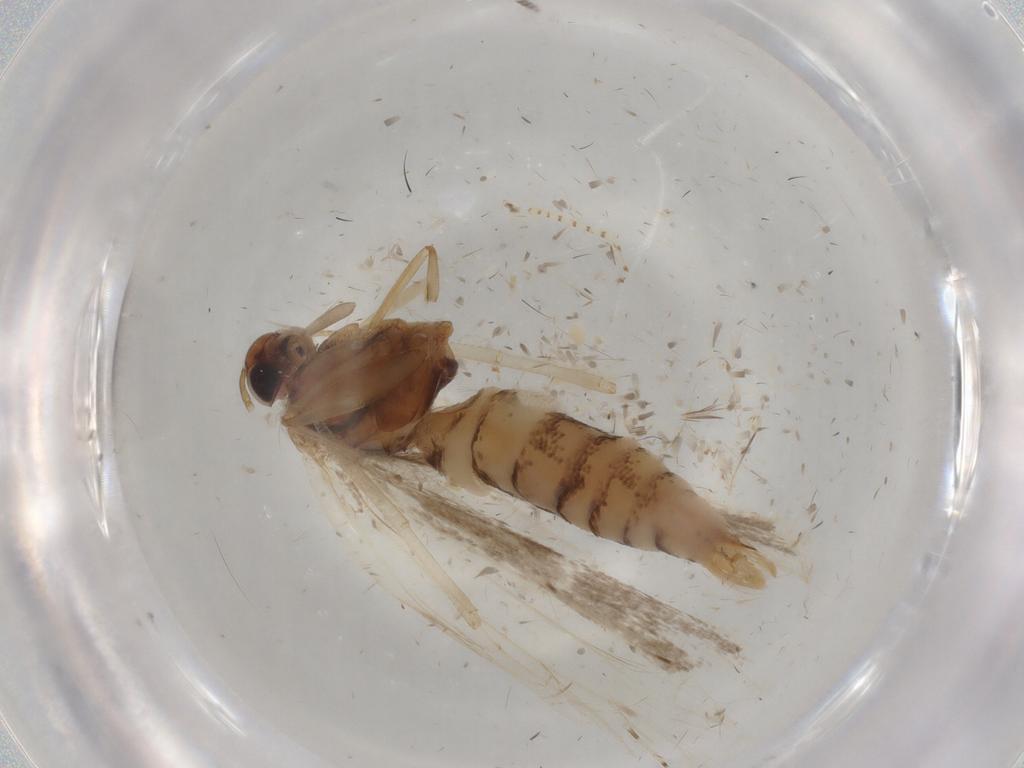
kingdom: Animalia
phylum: Arthropoda
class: Insecta
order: Lepidoptera
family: Gelechiidae
